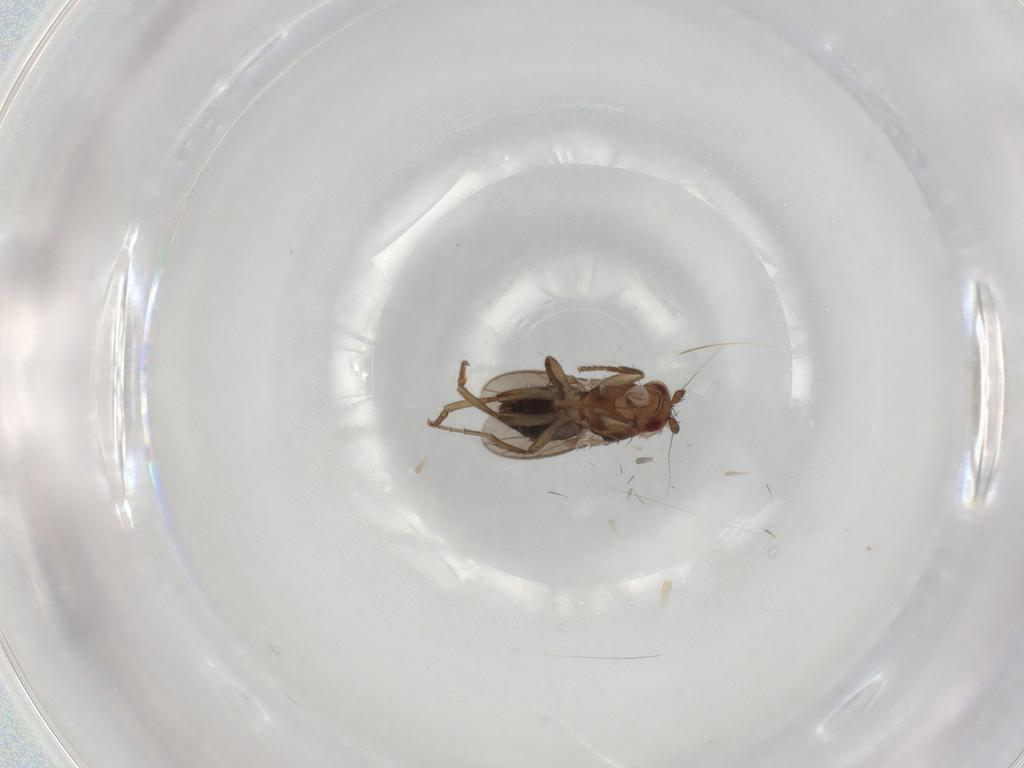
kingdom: Animalia
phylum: Arthropoda
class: Insecta
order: Diptera
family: Sphaeroceridae
